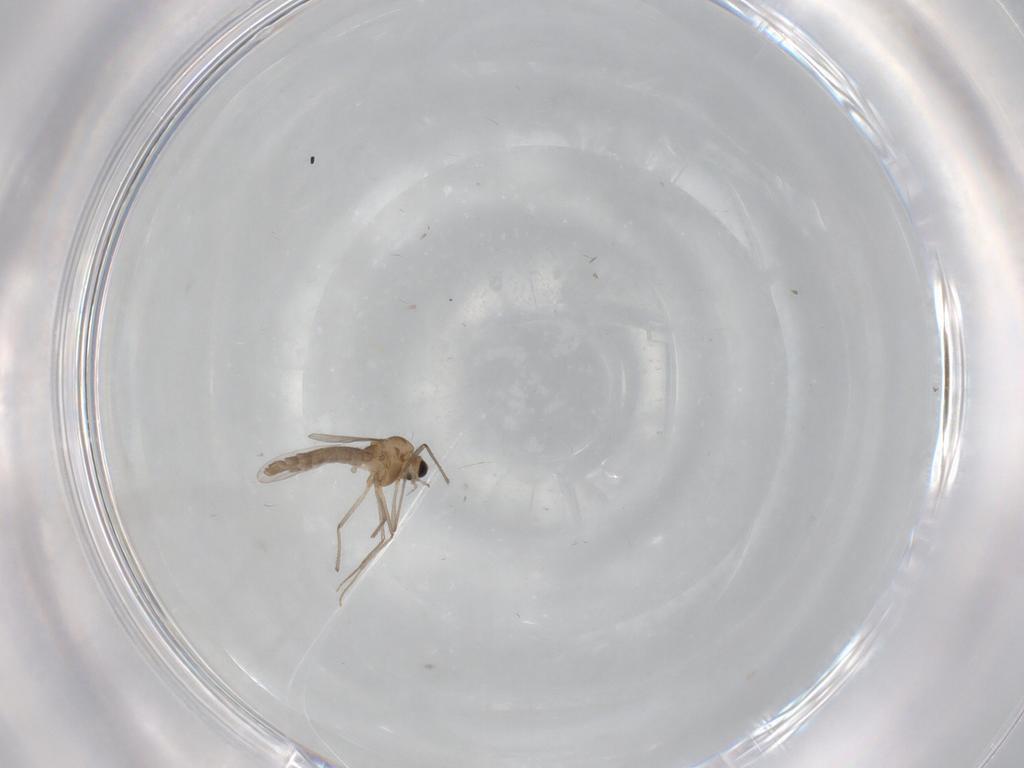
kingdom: Animalia
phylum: Arthropoda
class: Insecta
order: Diptera
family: Culicidae
